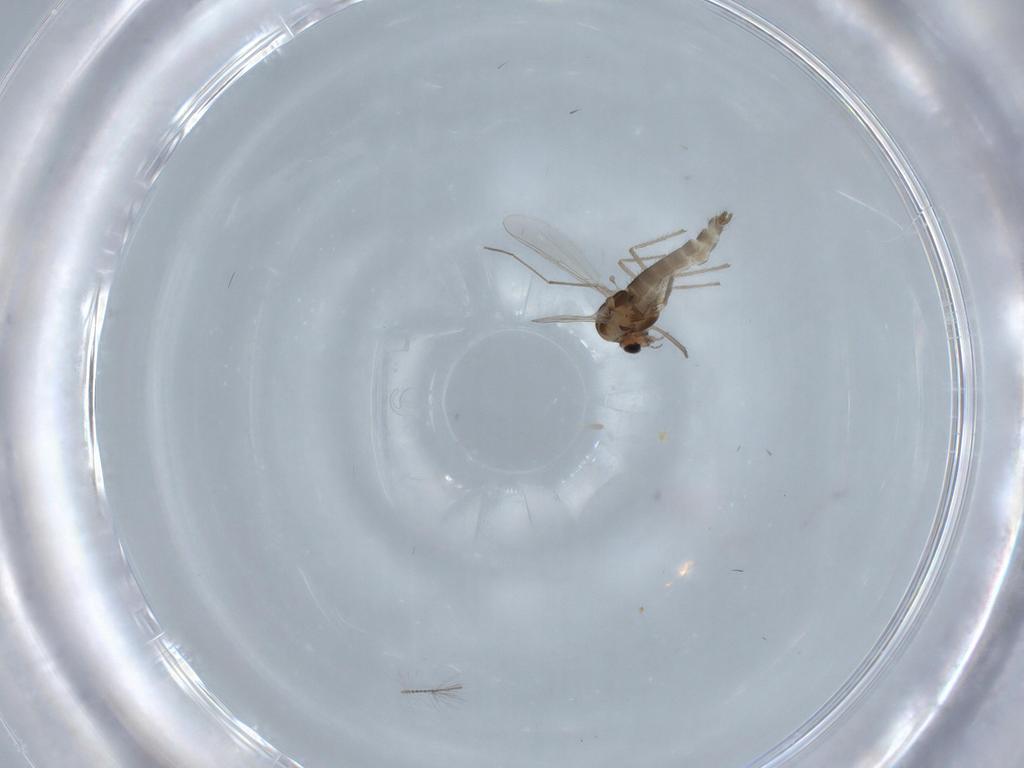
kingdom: Animalia
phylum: Arthropoda
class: Insecta
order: Diptera
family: Chironomidae
